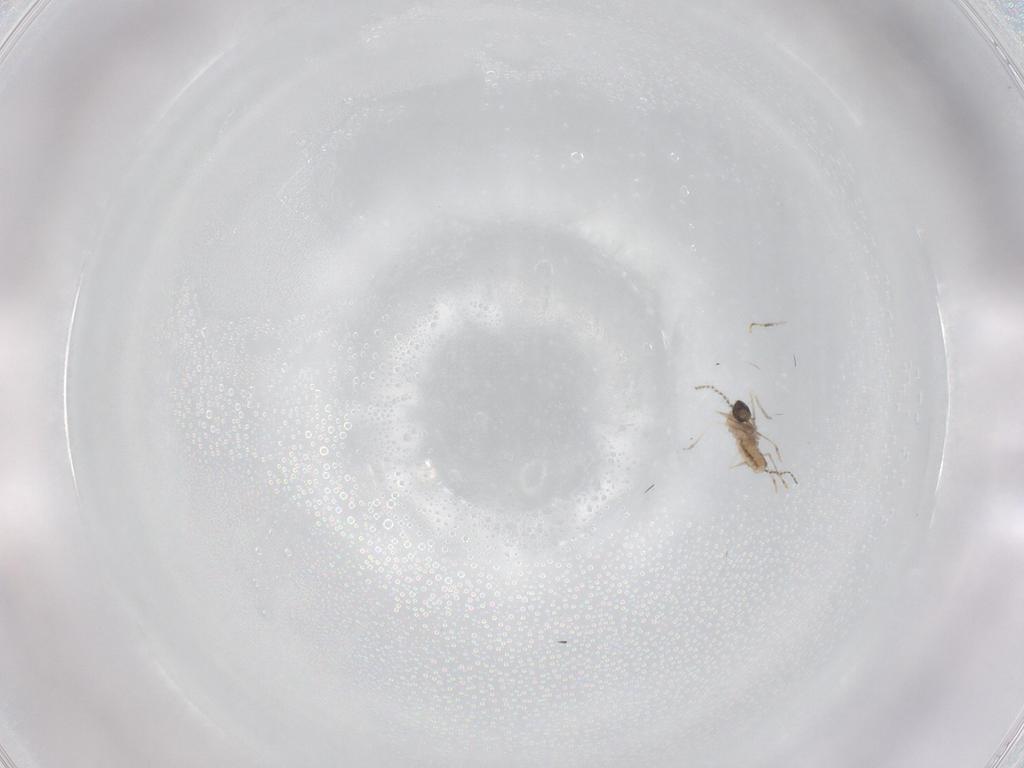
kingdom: Animalia
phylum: Arthropoda
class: Insecta
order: Diptera
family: Cecidomyiidae
